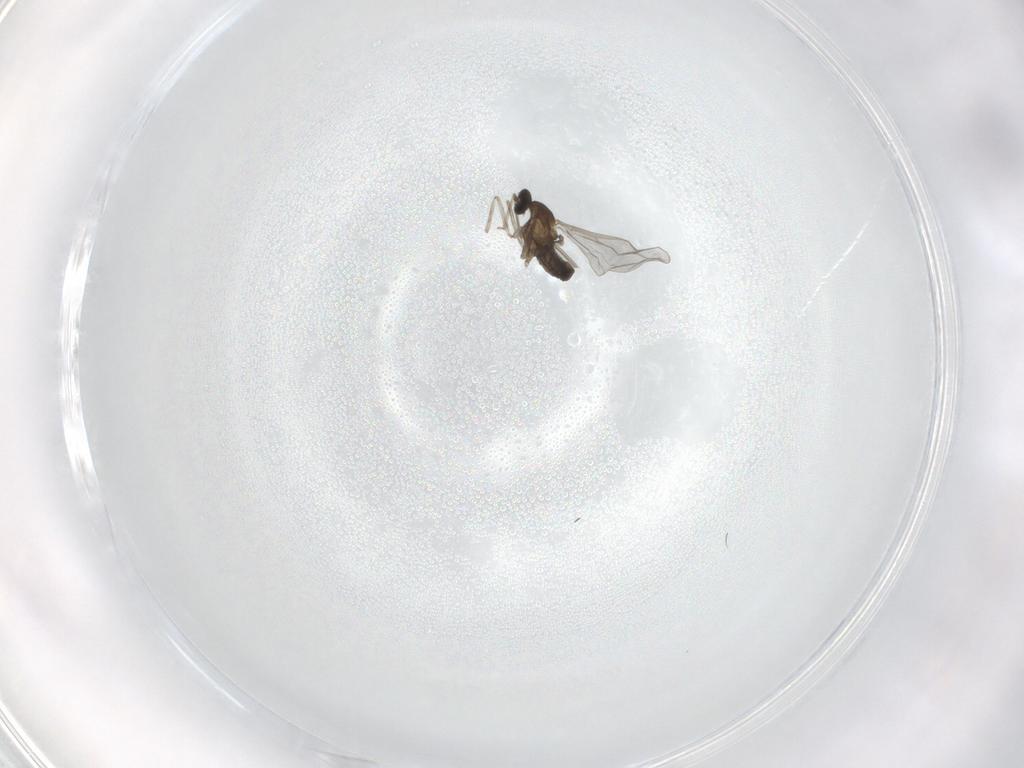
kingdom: Animalia
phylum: Arthropoda
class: Insecta
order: Diptera
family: Cecidomyiidae
